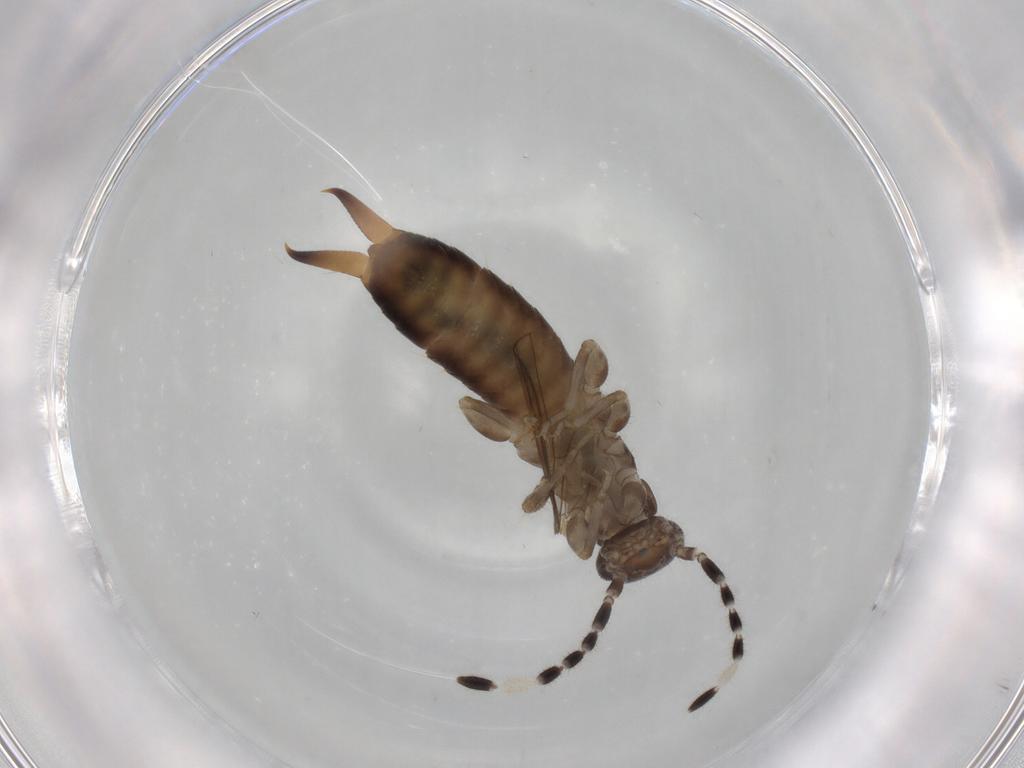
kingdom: Animalia
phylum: Arthropoda
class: Insecta
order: Dermaptera
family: Anisolabididae
